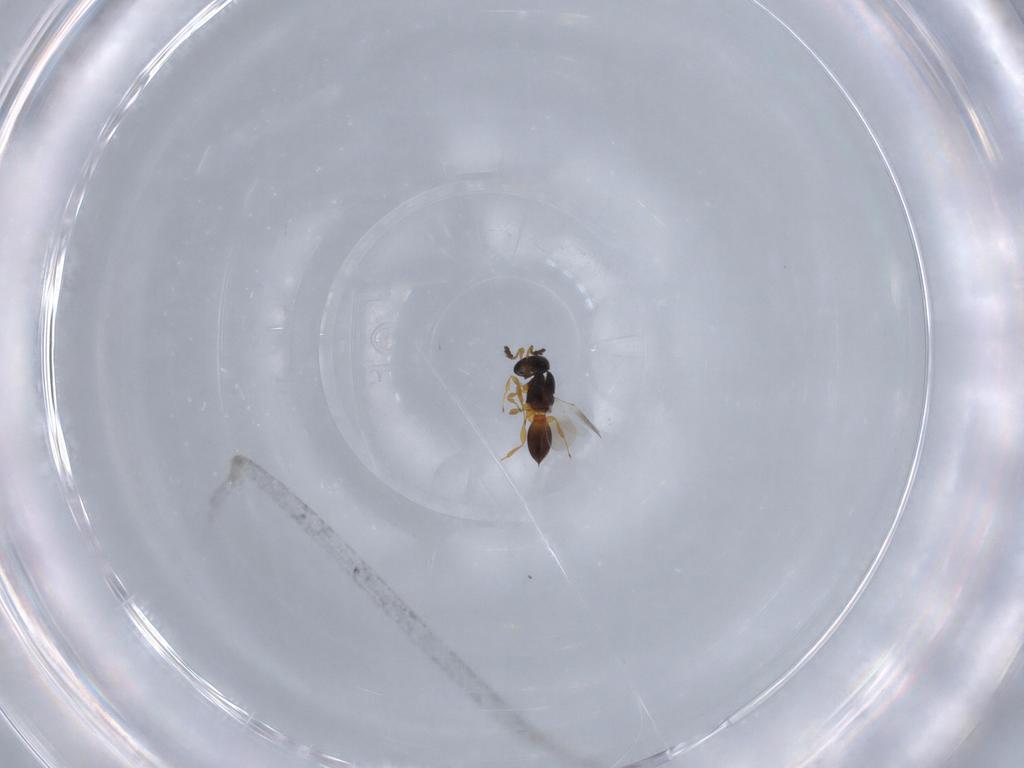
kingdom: Animalia
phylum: Arthropoda
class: Insecta
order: Hymenoptera
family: Platygastridae
